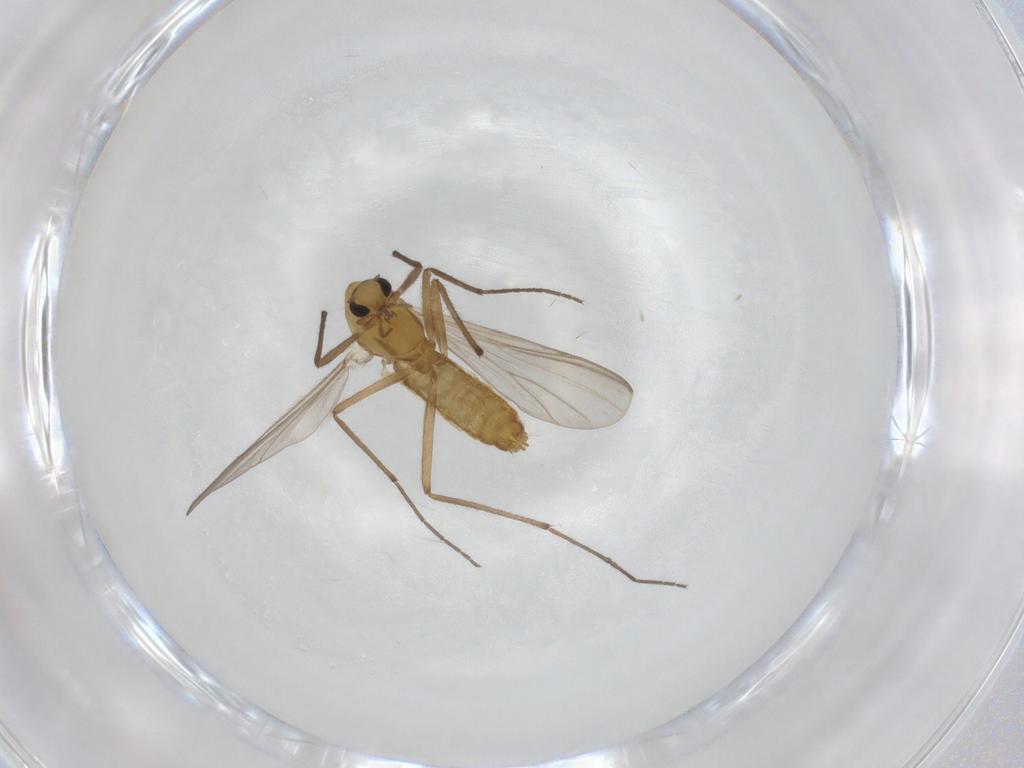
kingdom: Animalia
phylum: Arthropoda
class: Insecta
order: Diptera
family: Chironomidae
